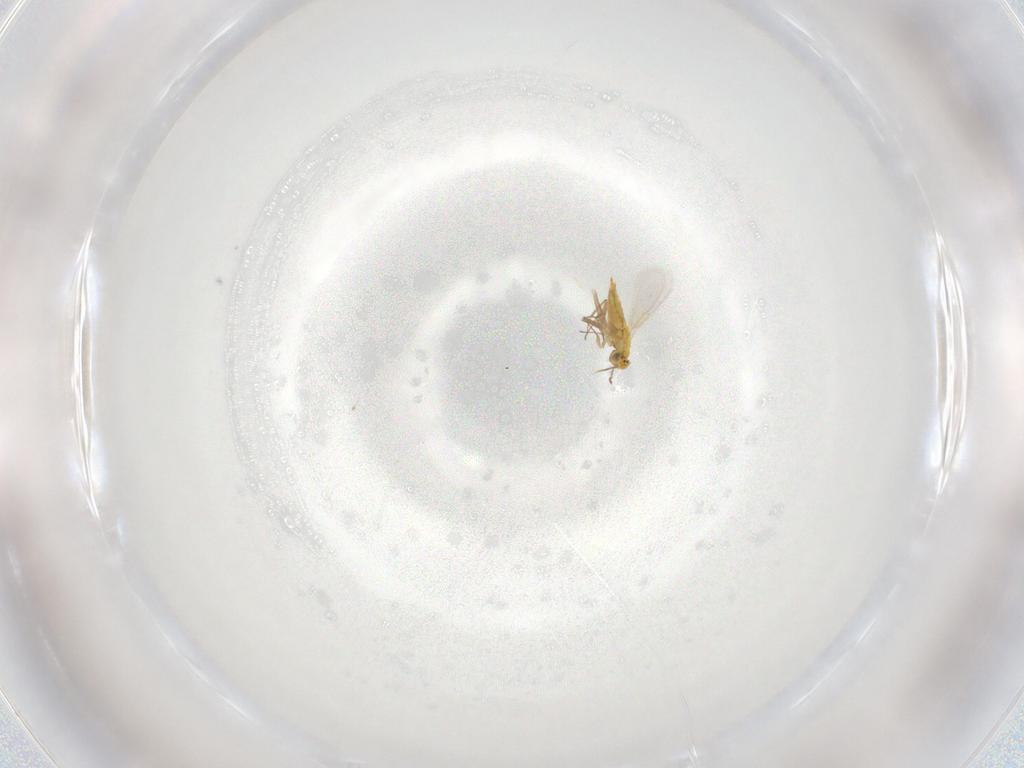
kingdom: Animalia
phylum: Arthropoda
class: Insecta
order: Hymenoptera
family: Aphelinidae
